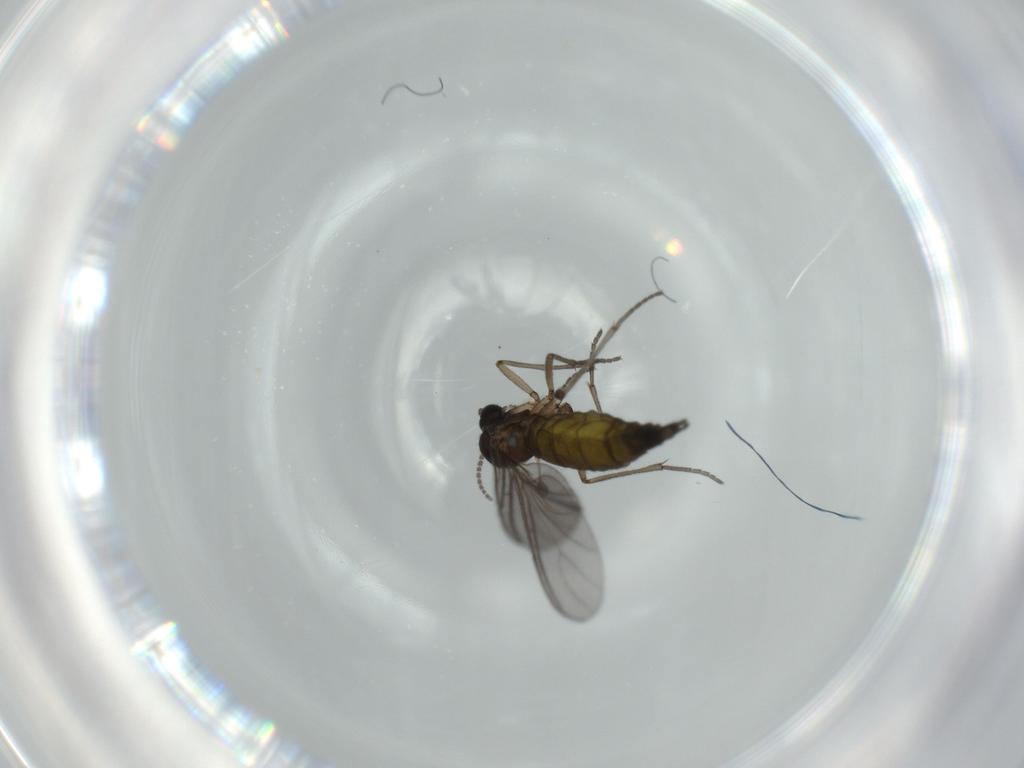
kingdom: Animalia
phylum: Arthropoda
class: Insecta
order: Diptera
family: Sciaridae
